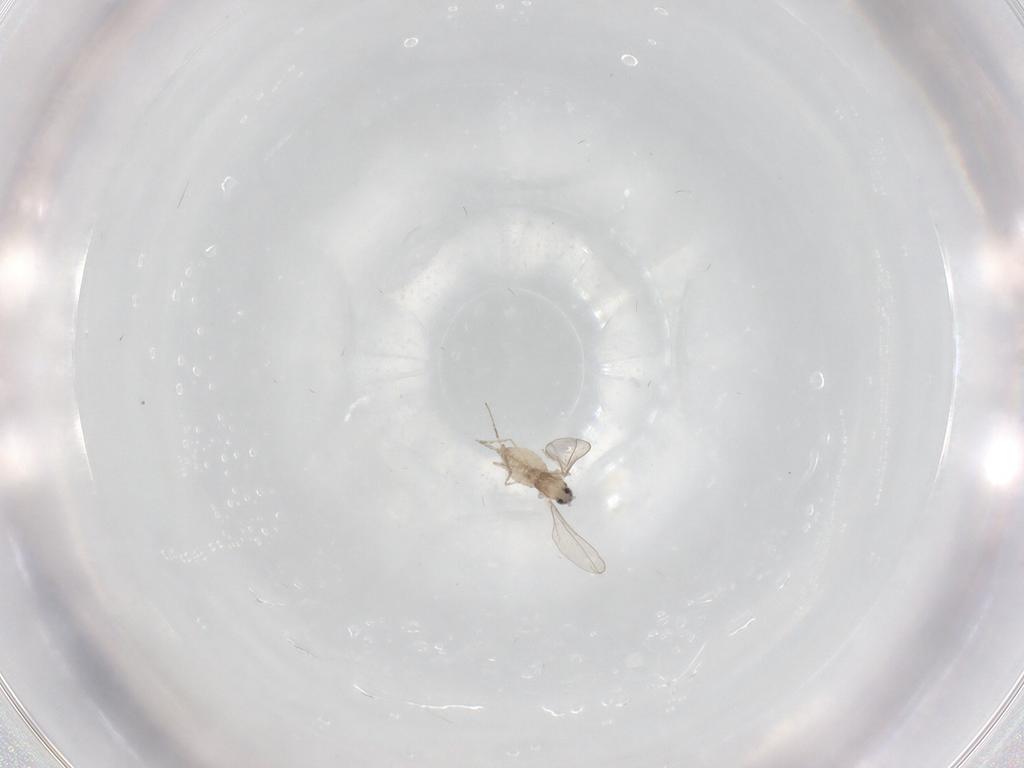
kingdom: Animalia
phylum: Arthropoda
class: Insecta
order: Diptera
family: Cecidomyiidae
